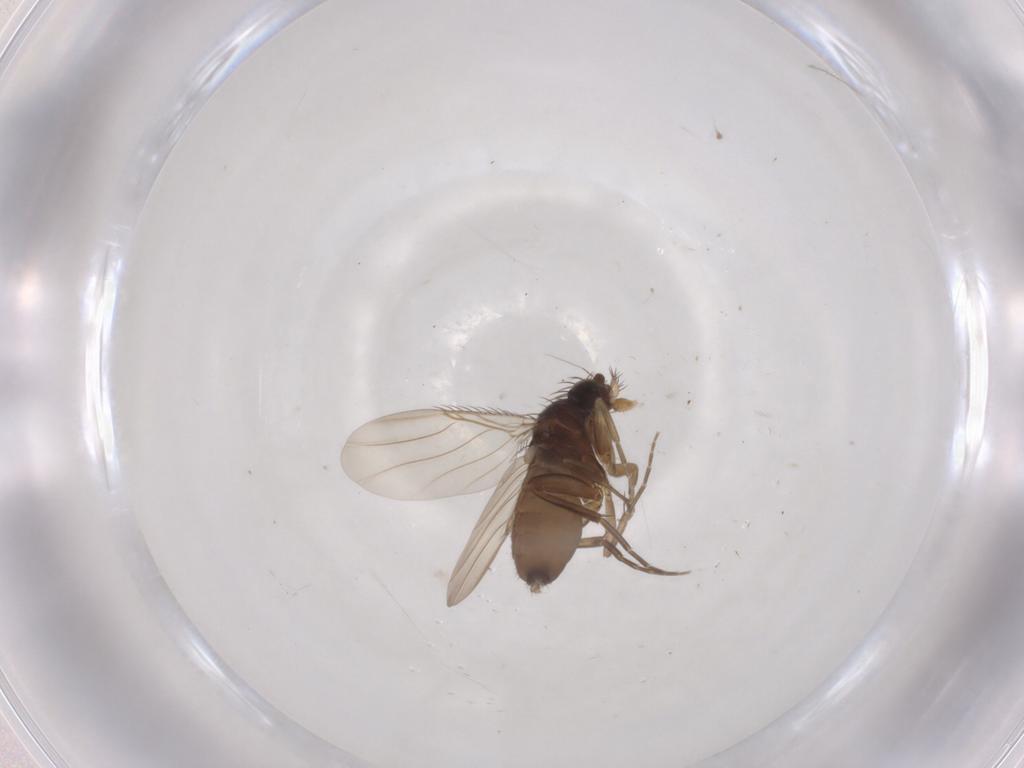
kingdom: Animalia
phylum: Arthropoda
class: Insecta
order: Diptera
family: Phoridae
